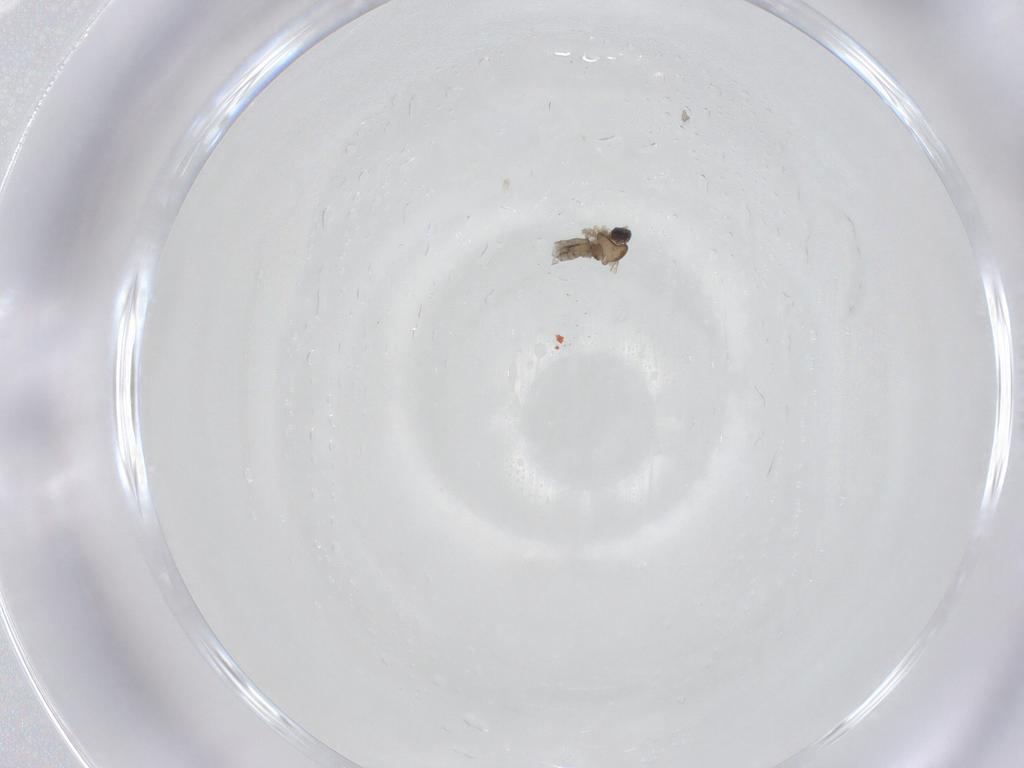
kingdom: Animalia
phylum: Arthropoda
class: Insecta
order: Diptera
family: Cecidomyiidae
